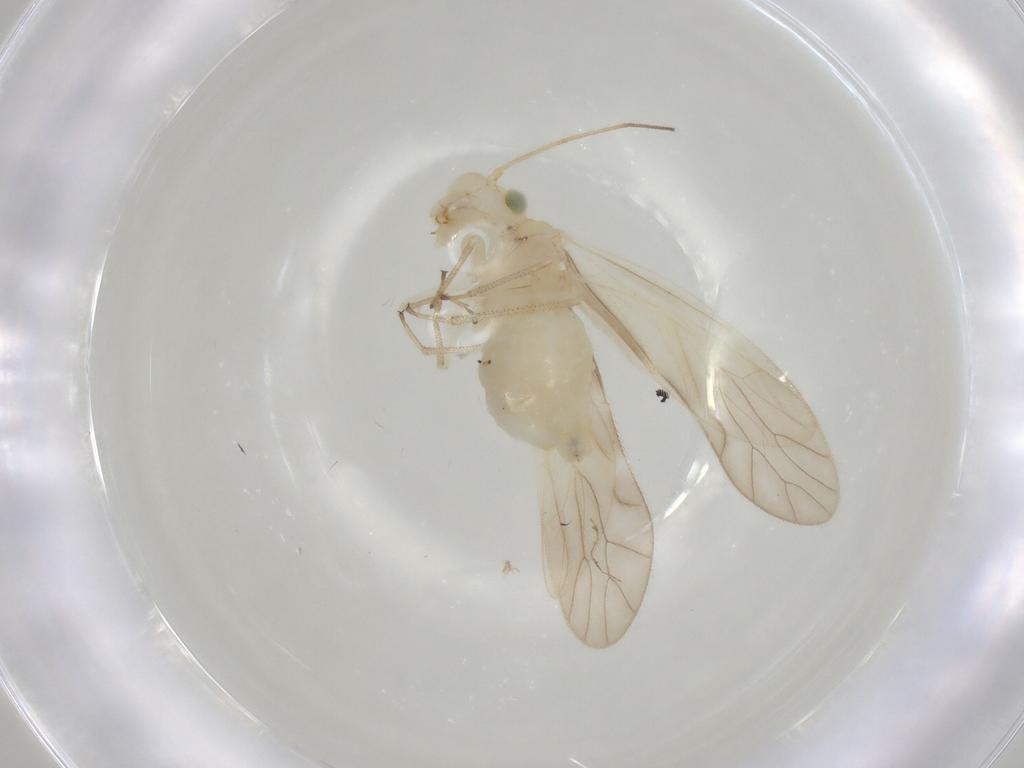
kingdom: Animalia
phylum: Arthropoda
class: Insecta
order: Psocodea
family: Caeciliusidae
